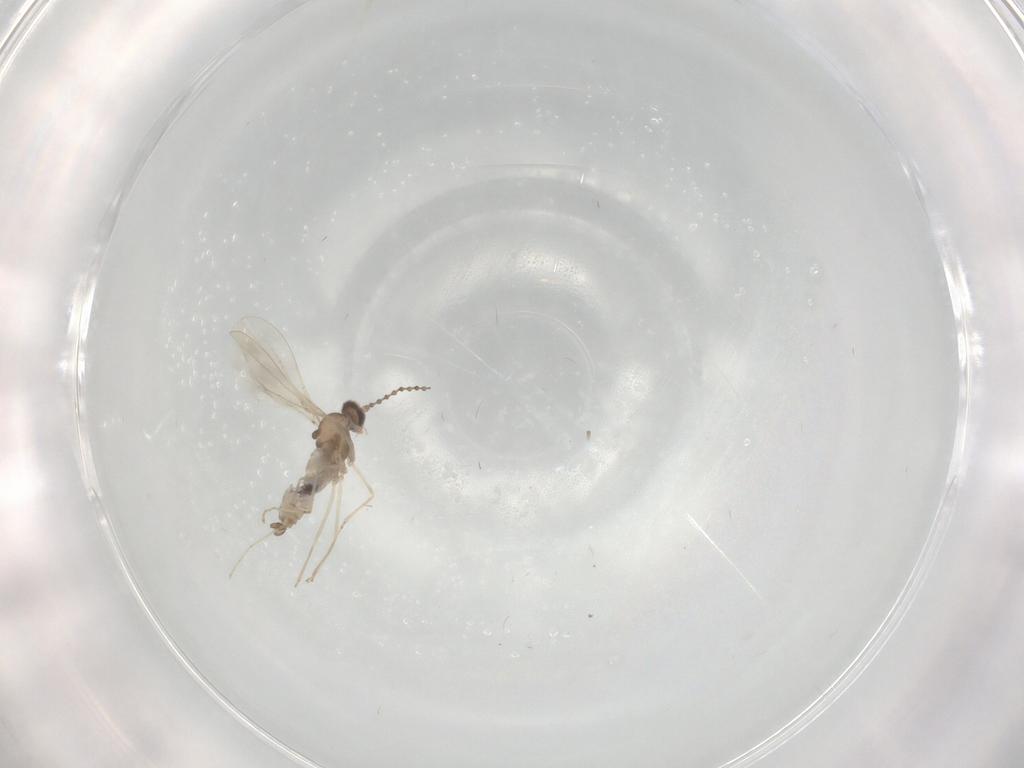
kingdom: Animalia
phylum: Arthropoda
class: Insecta
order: Diptera
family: Cecidomyiidae
